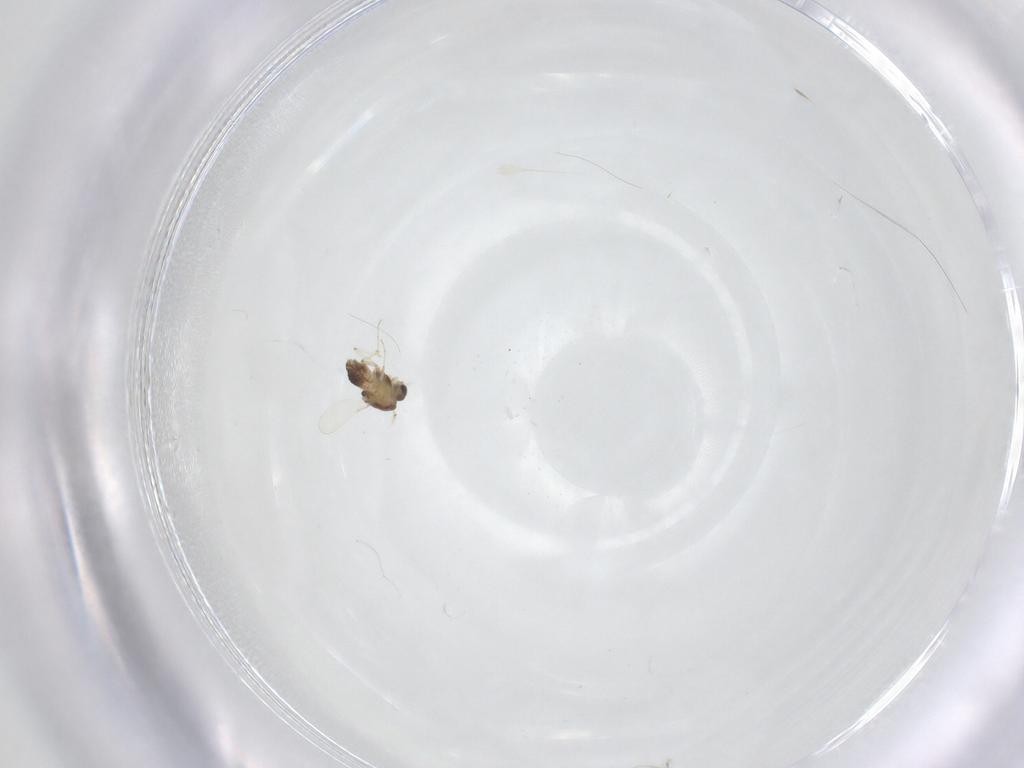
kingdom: Animalia
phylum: Arthropoda
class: Insecta
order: Diptera
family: Chironomidae
